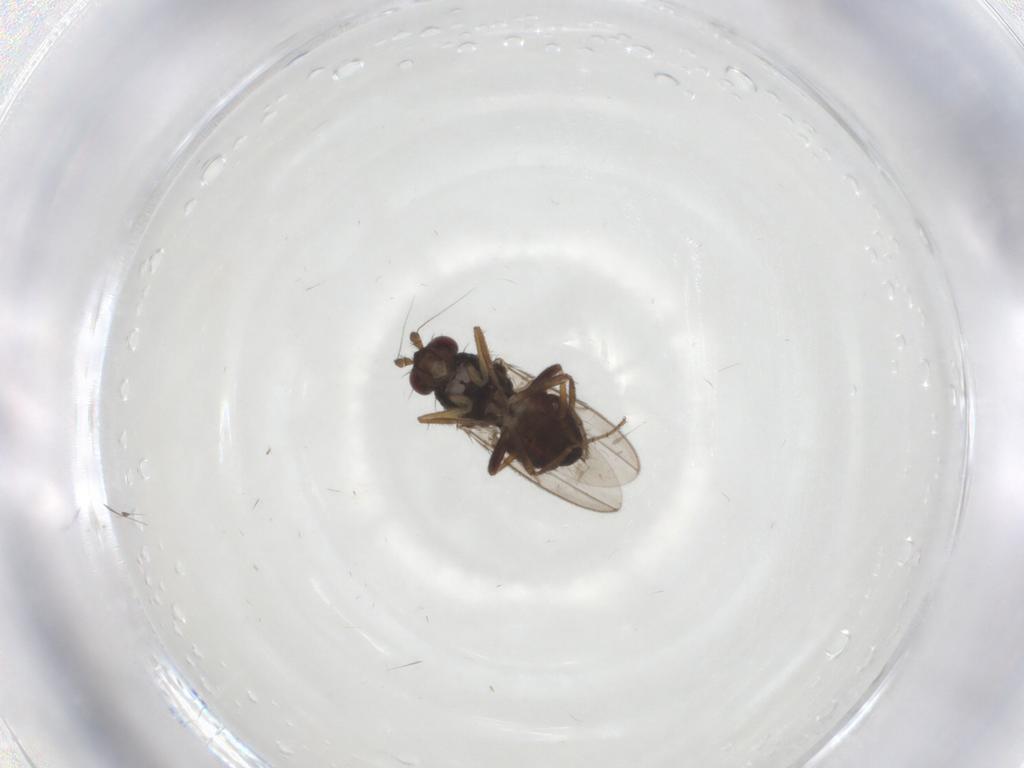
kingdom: Animalia
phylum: Arthropoda
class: Insecta
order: Diptera
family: Sphaeroceridae
